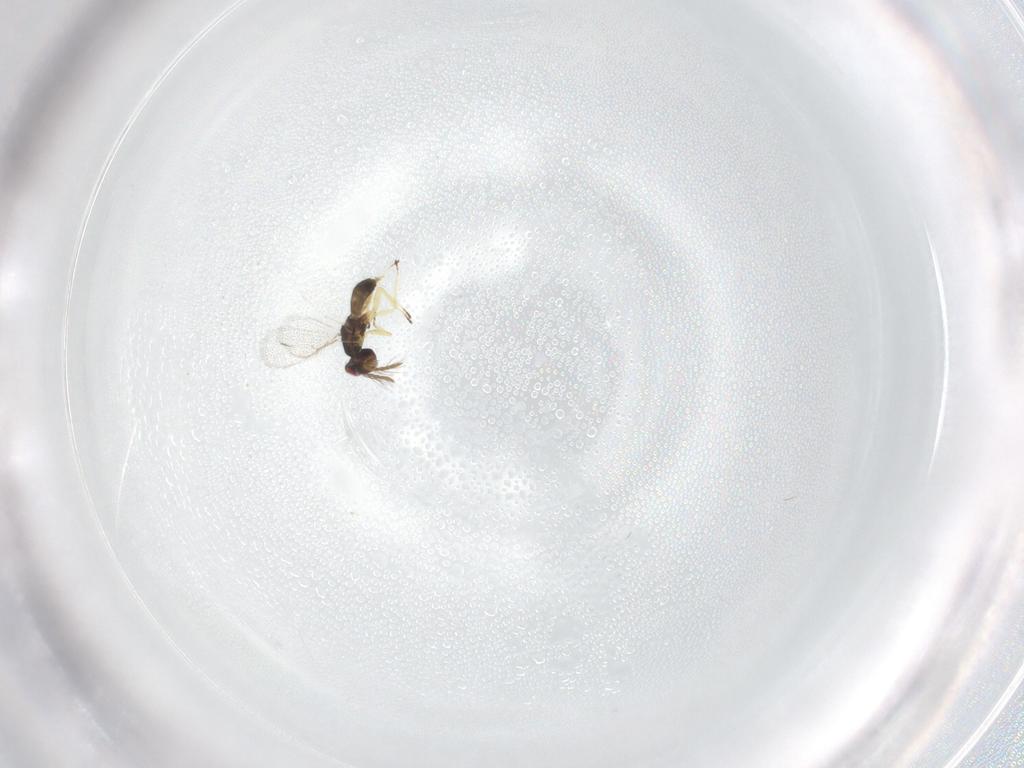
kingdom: Animalia
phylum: Arthropoda
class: Insecta
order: Hymenoptera
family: Eulophidae
